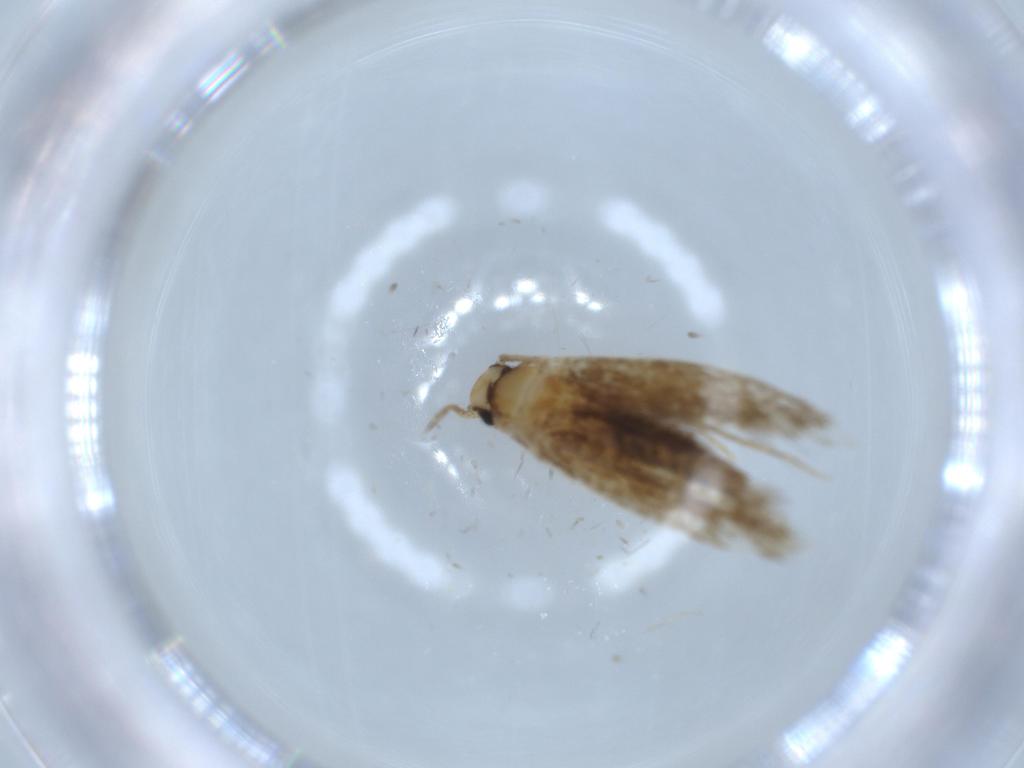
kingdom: Animalia
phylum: Arthropoda
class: Insecta
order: Lepidoptera
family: Tineidae
